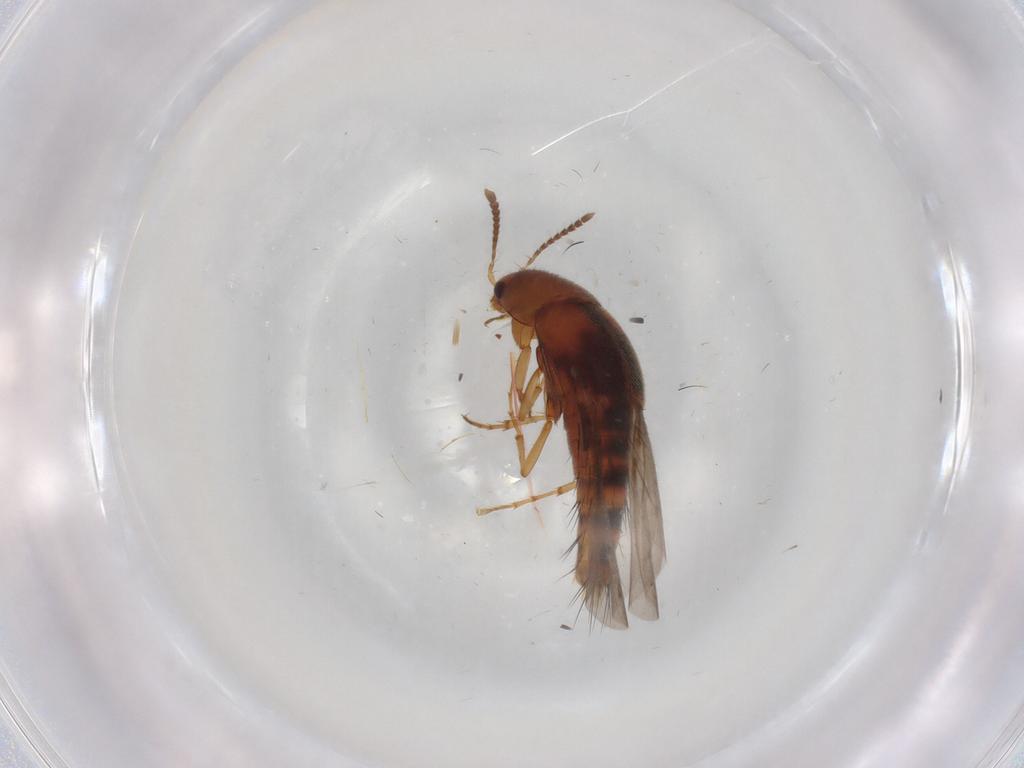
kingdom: Animalia
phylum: Arthropoda
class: Insecta
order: Coleoptera
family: Staphylinidae
